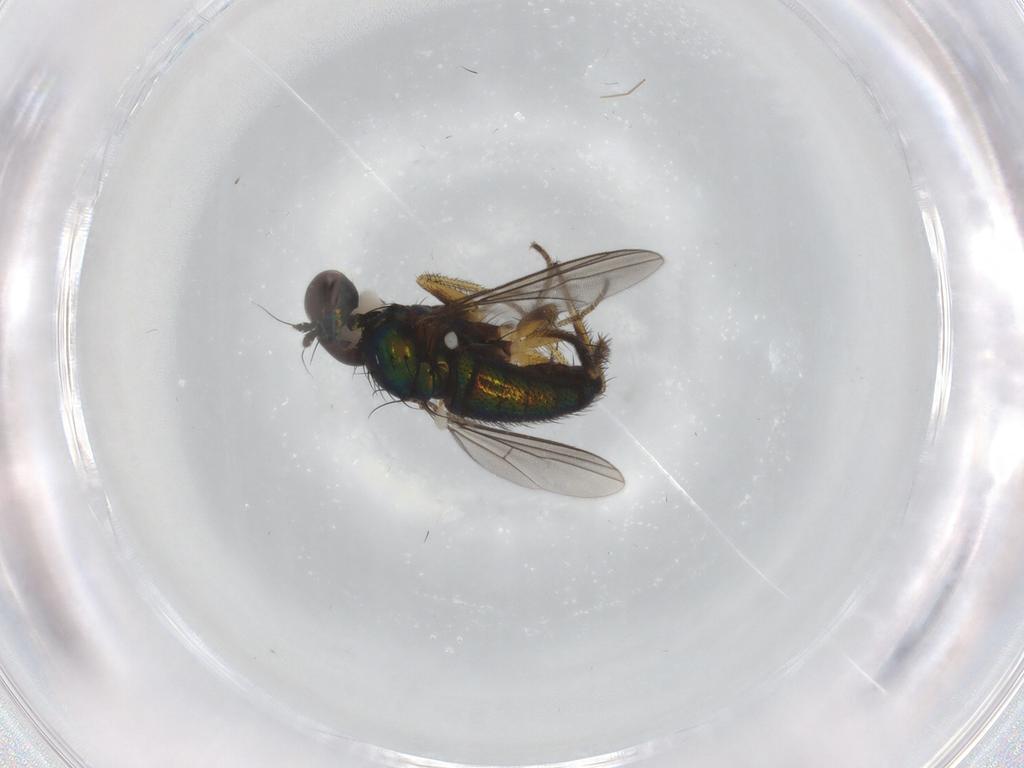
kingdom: Animalia
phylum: Arthropoda
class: Insecta
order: Diptera
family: Dolichopodidae
